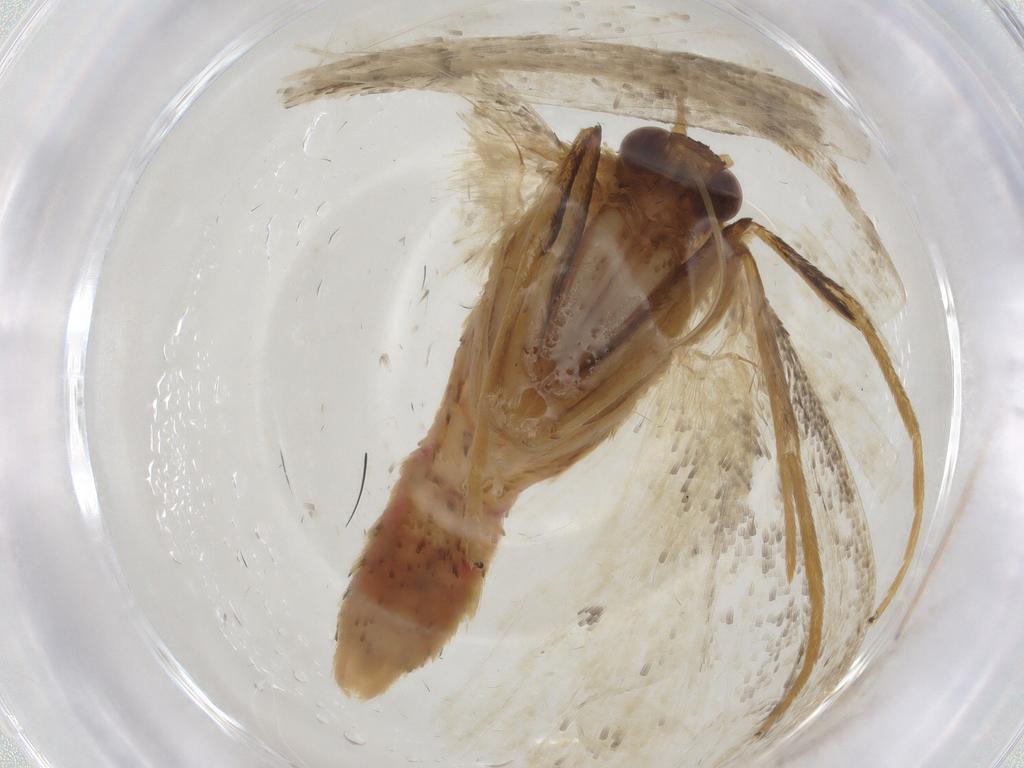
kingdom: Animalia
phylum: Arthropoda
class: Insecta
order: Lepidoptera
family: Geometridae
